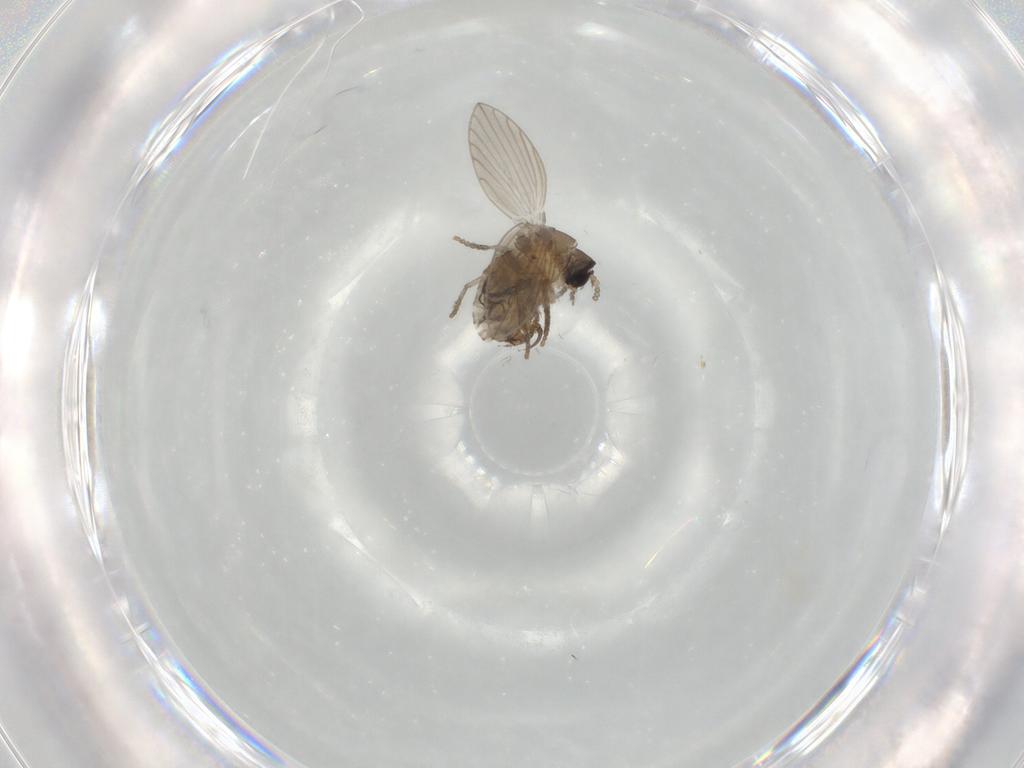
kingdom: Animalia
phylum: Arthropoda
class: Insecta
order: Diptera
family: Psychodidae
